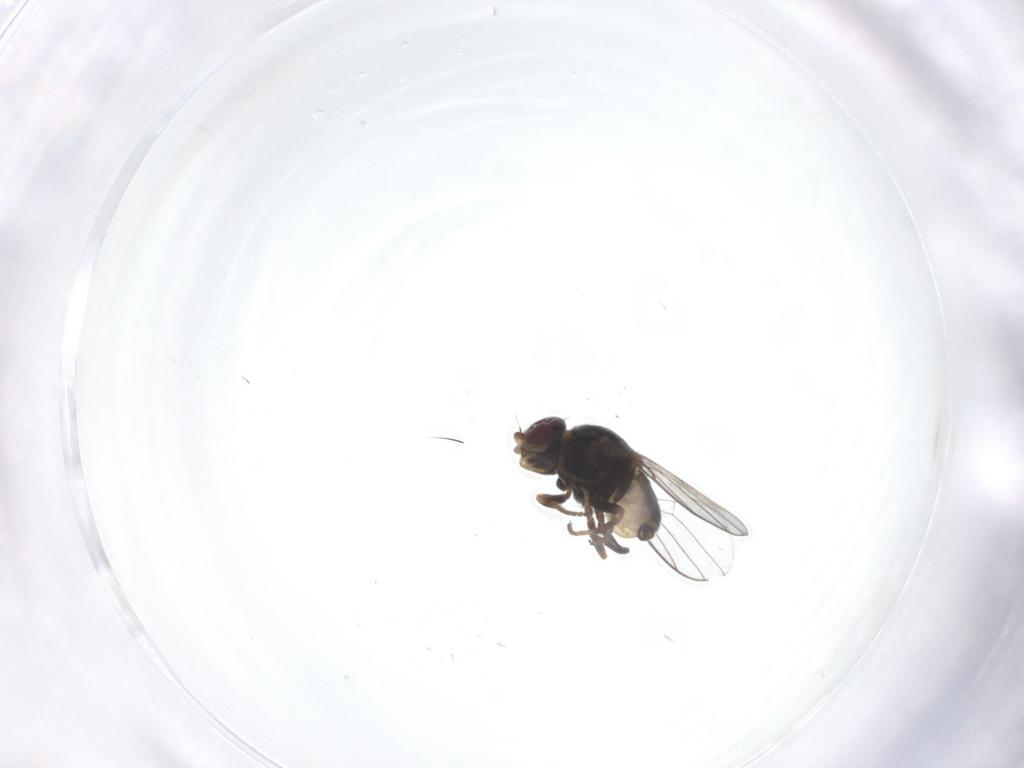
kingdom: Animalia
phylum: Arthropoda
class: Insecta
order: Diptera
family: Chloropidae
